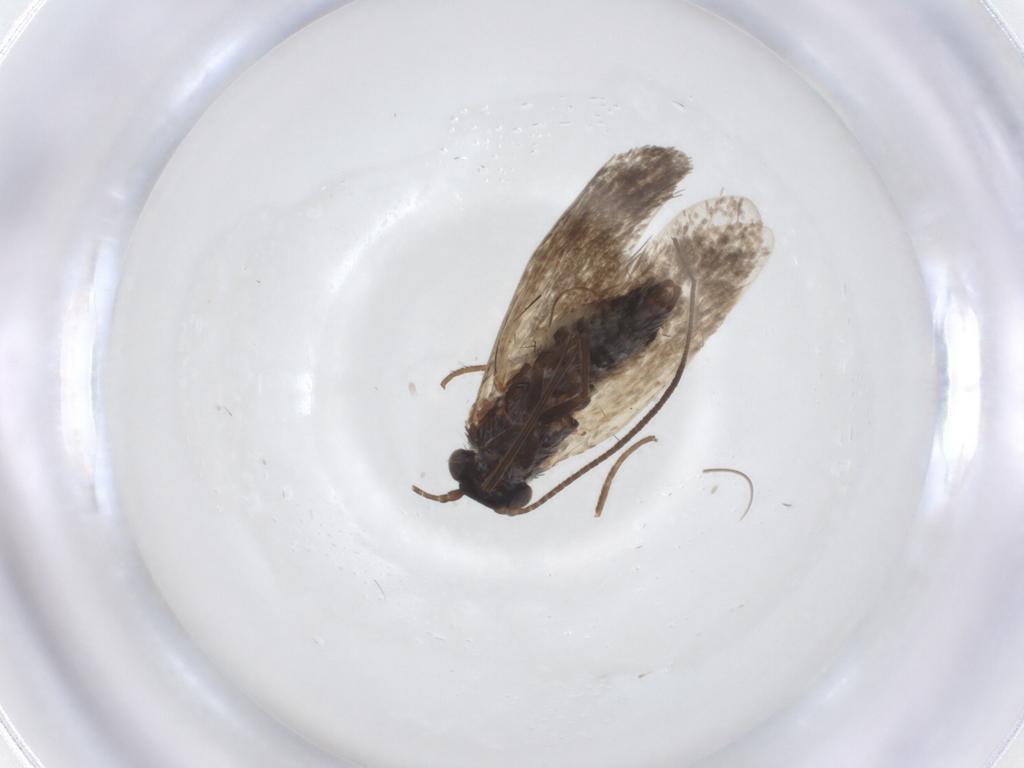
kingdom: Animalia
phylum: Arthropoda
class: Insecta
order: Lepidoptera
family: Adelidae
